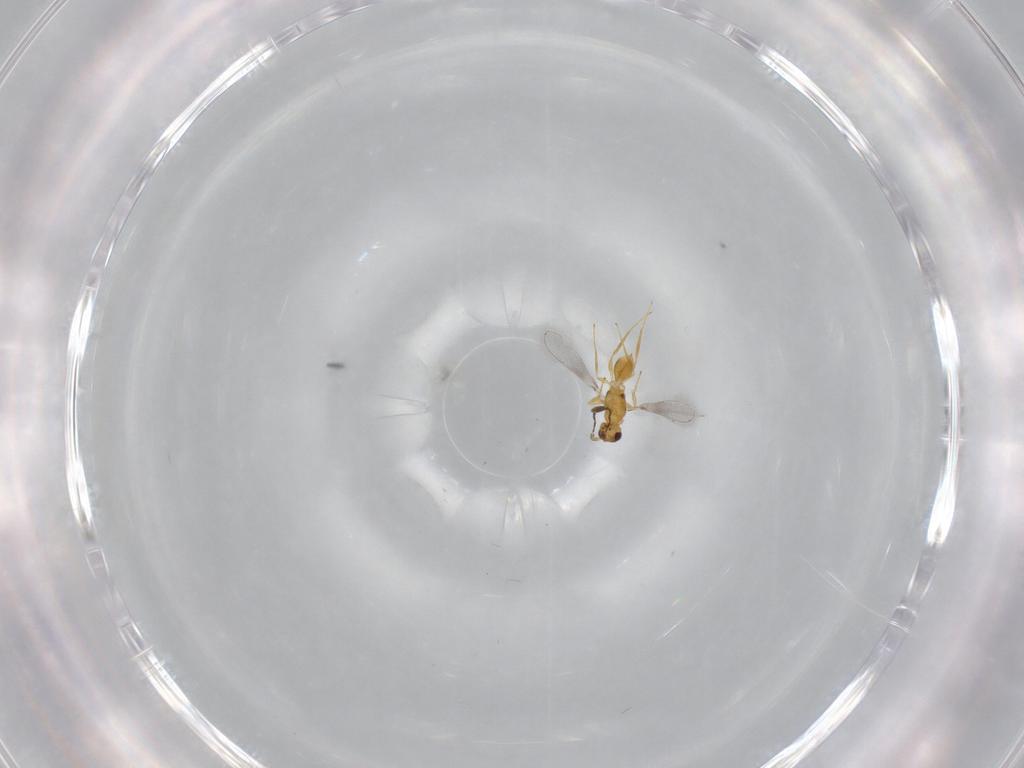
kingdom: Animalia
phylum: Arthropoda
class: Insecta
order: Hymenoptera
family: Mymaridae
